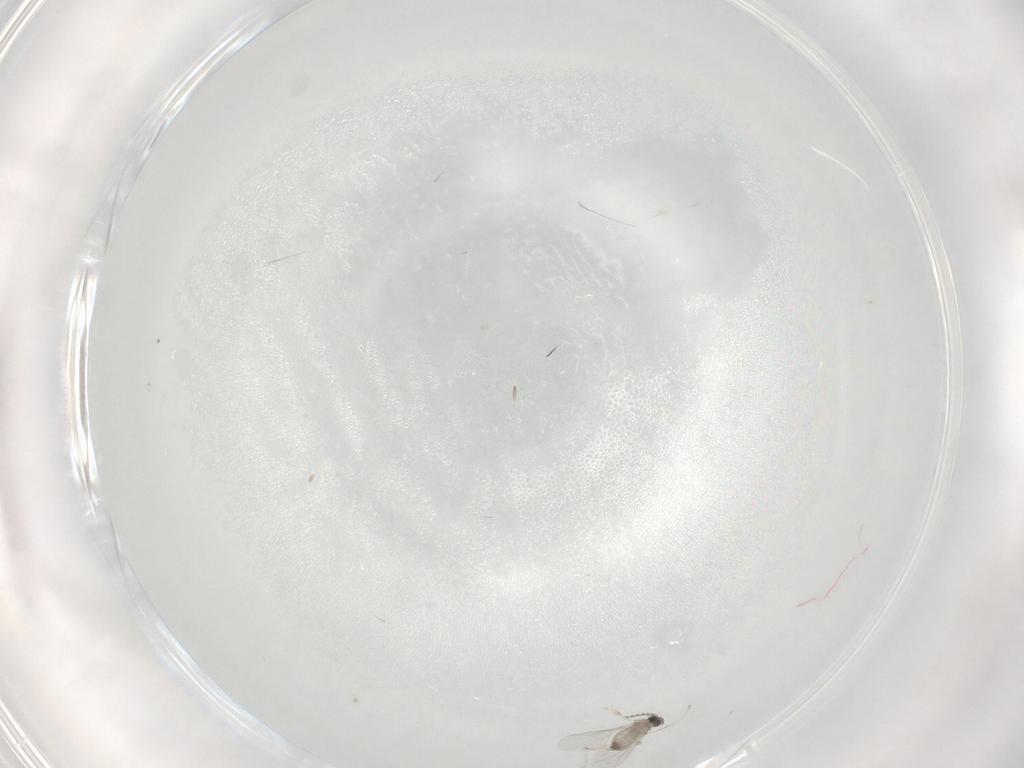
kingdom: Animalia
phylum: Arthropoda
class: Insecta
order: Diptera
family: Cecidomyiidae
